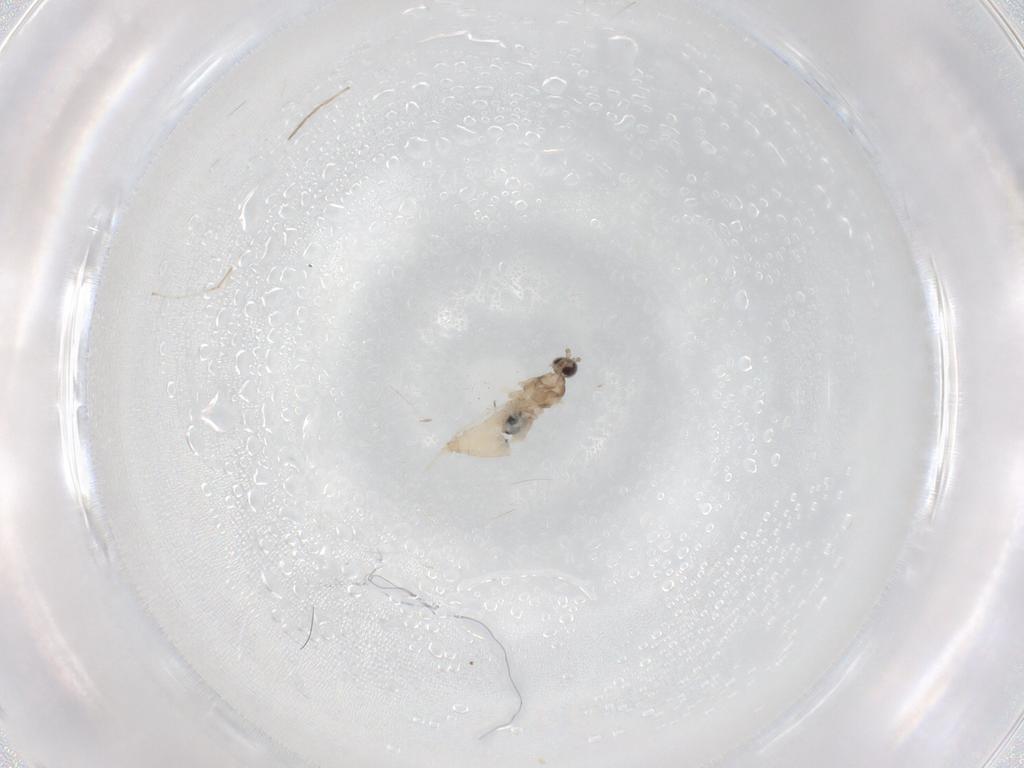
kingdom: Animalia
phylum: Arthropoda
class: Insecta
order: Diptera
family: Cecidomyiidae
